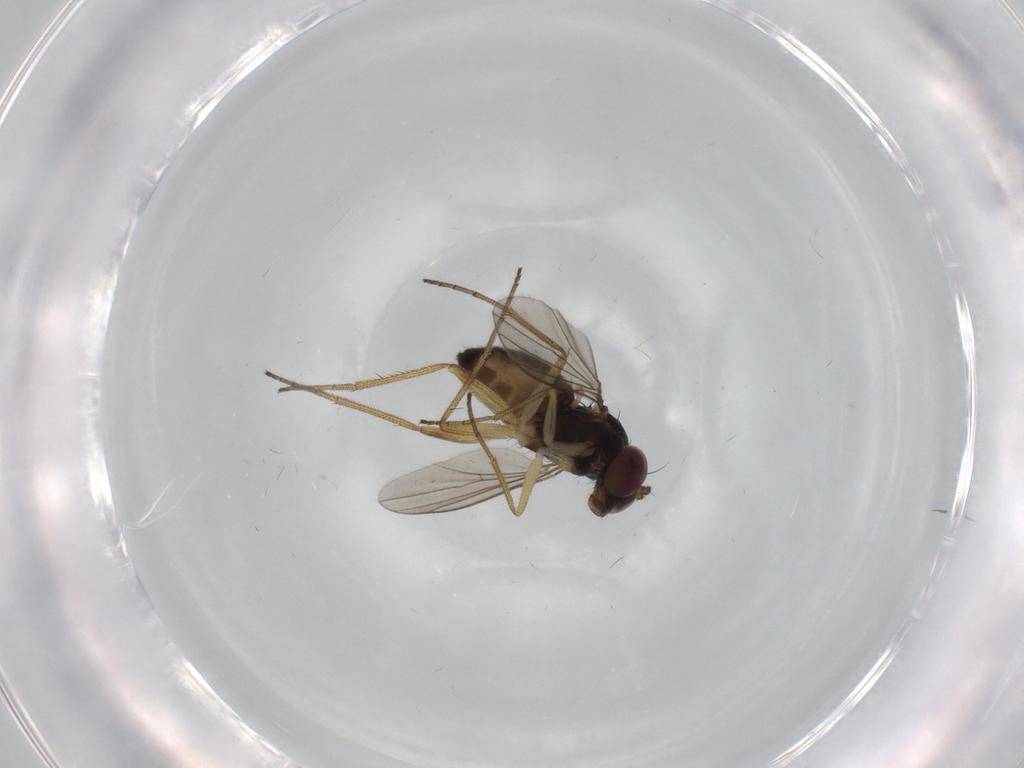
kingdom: Animalia
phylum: Arthropoda
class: Insecta
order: Diptera
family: Dolichopodidae
